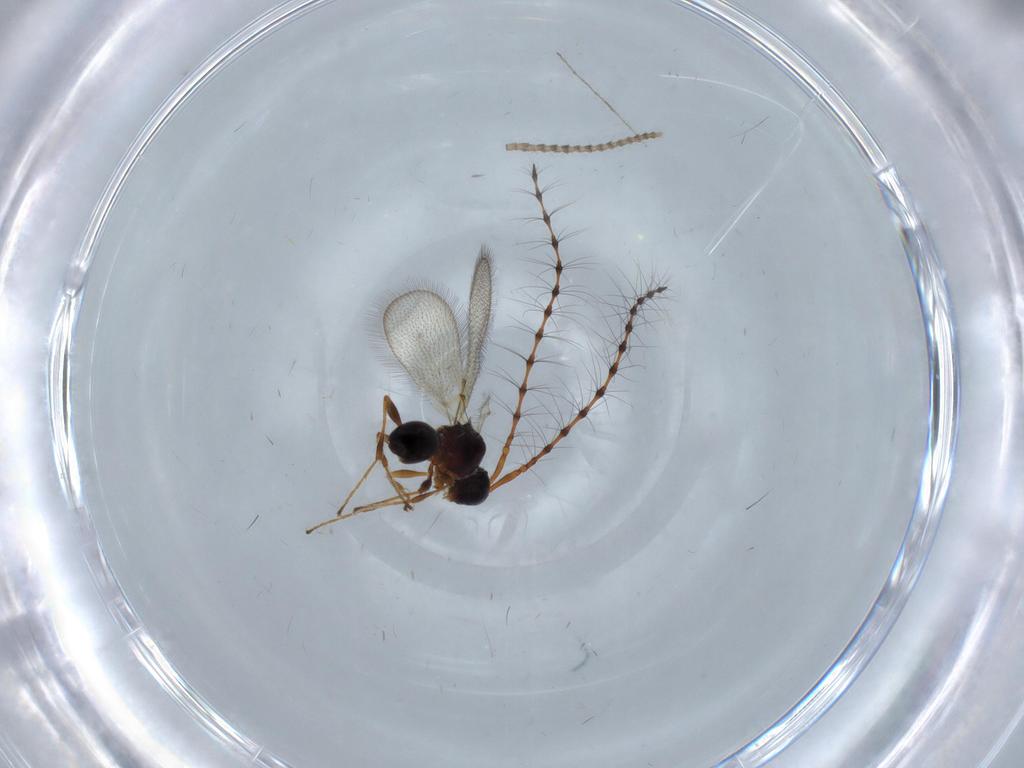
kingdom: Animalia
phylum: Arthropoda
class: Insecta
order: Hymenoptera
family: Diapriidae
